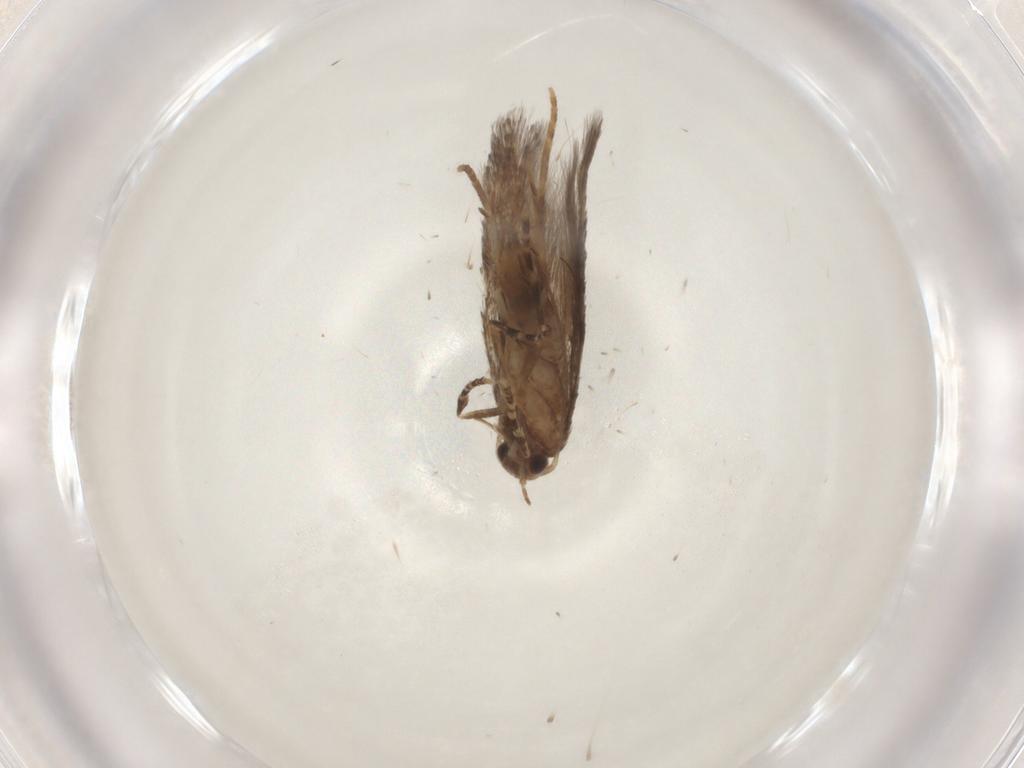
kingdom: Animalia
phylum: Arthropoda
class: Insecta
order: Lepidoptera
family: Elachistidae
